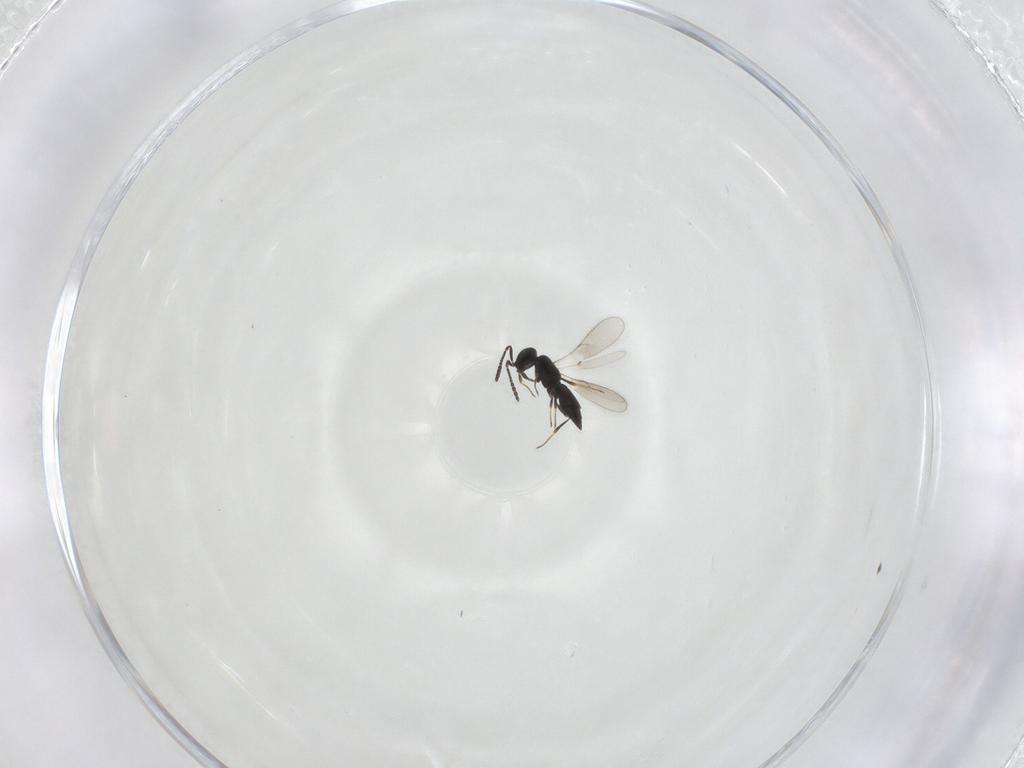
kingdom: Animalia
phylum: Arthropoda
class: Insecta
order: Hymenoptera
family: Scelionidae
